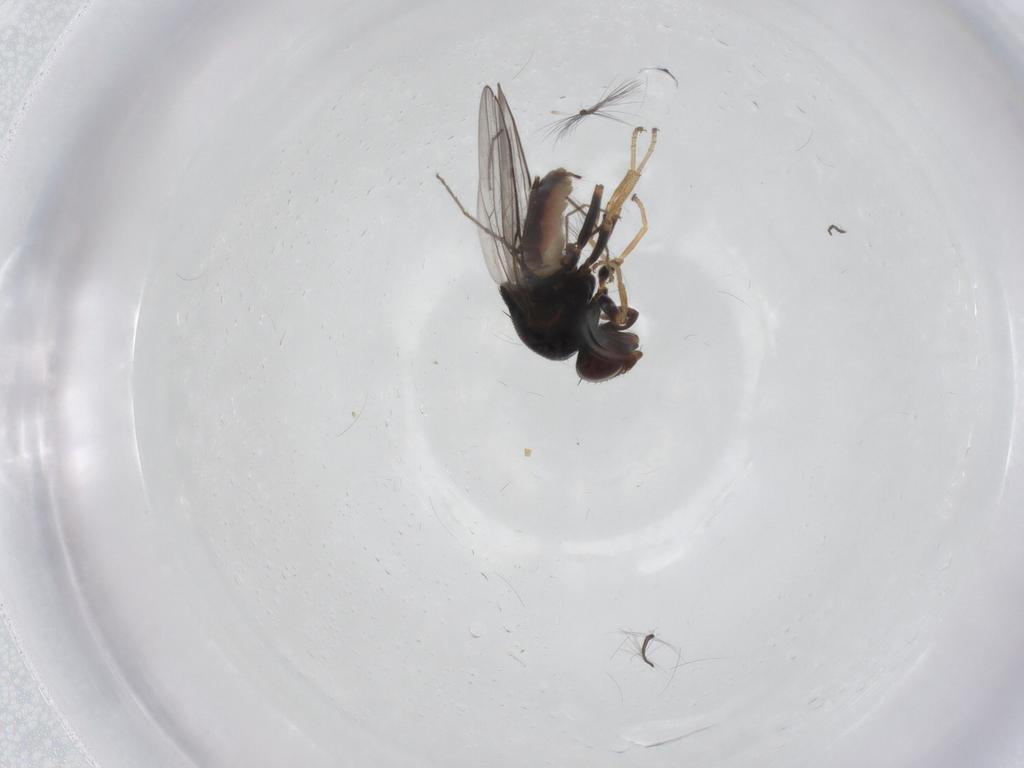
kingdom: Animalia
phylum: Arthropoda
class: Insecta
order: Diptera
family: Chloropidae
